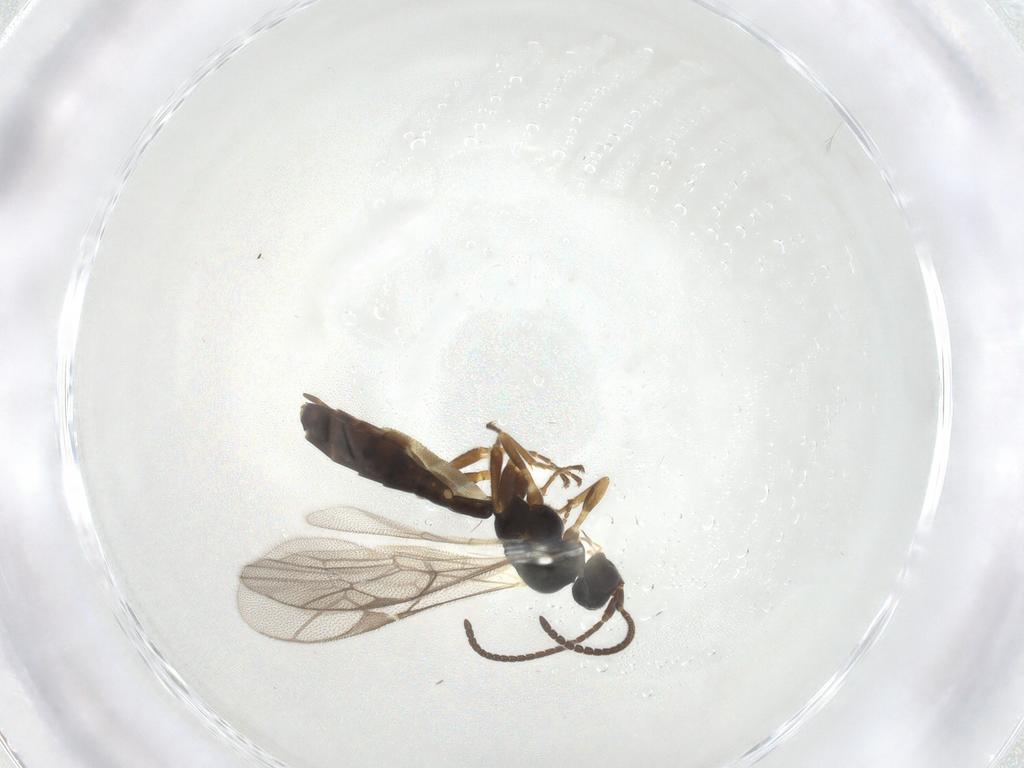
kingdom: Animalia
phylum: Arthropoda
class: Insecta
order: Hymenoptera
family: Ichneumonidae
